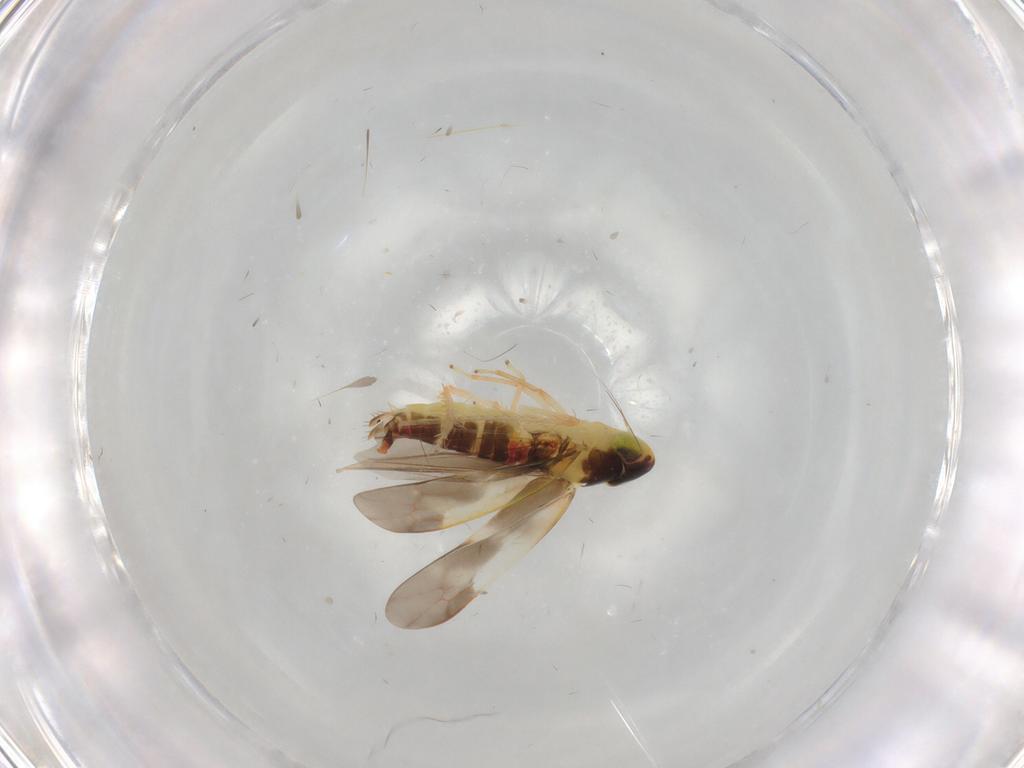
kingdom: Animalia
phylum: Arthropoda
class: Insecta
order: Hemiptera
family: Cicadellidae
